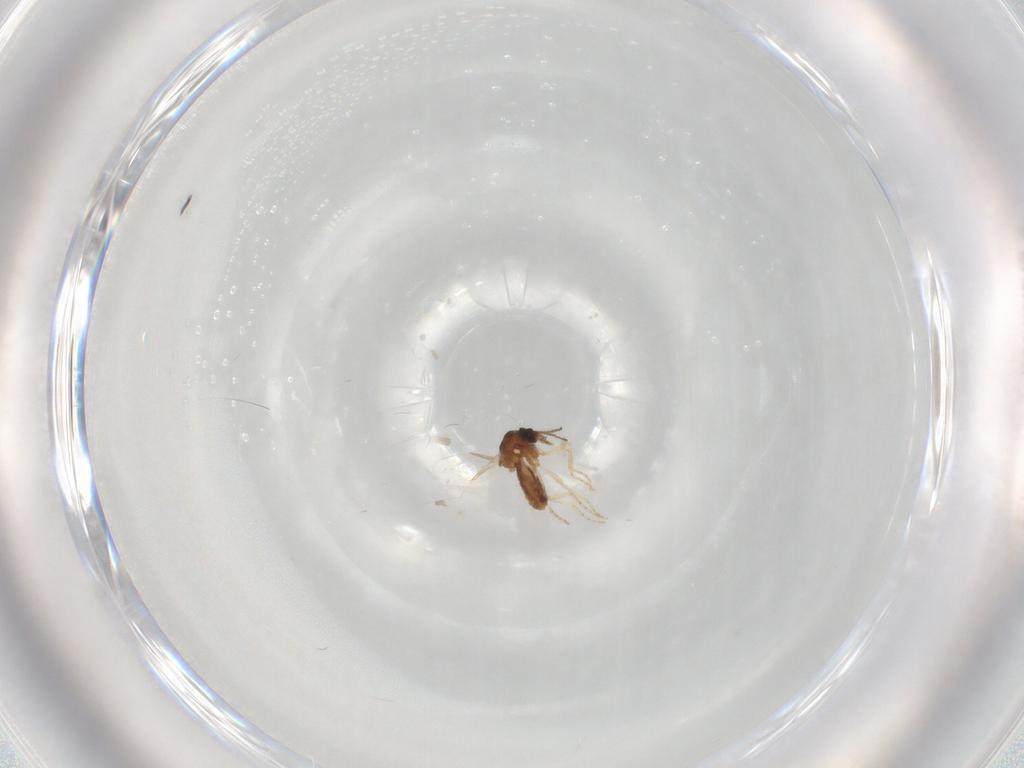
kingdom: Animalia
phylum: Arthropoda
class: Insecta
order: Diptera
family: Ceratopogonidae
